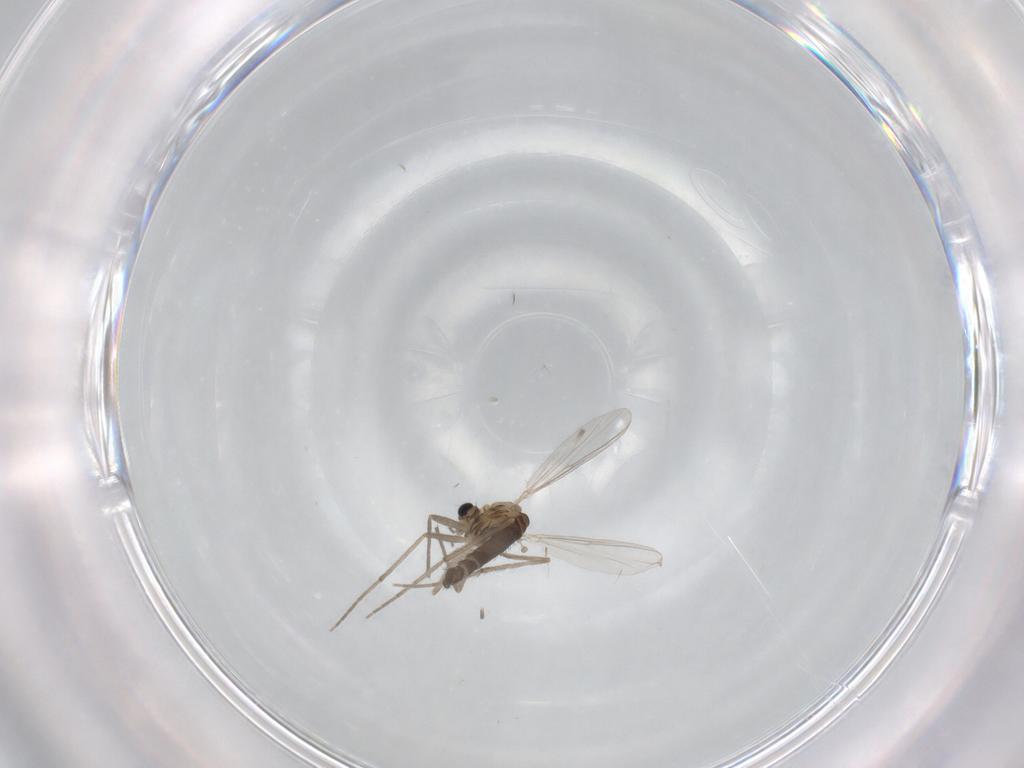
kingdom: Animalia
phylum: Arthropoda
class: Insecta
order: Diptera
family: Chironomidae
